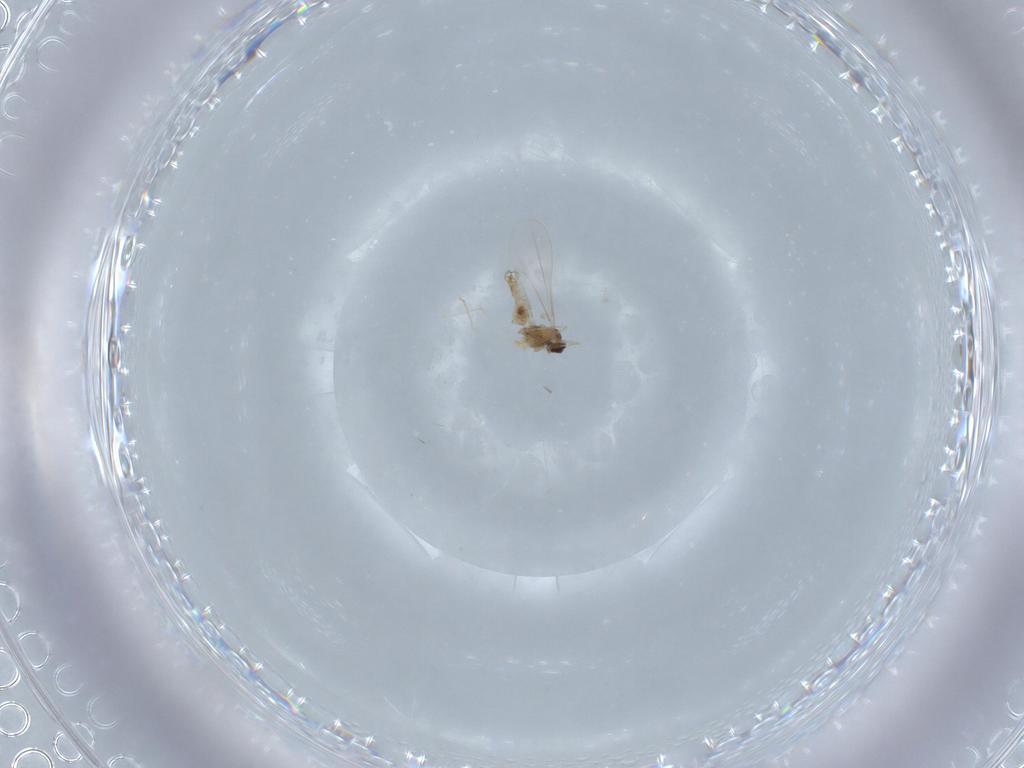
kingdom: Animalia
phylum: Arthropoda
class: Insecta
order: Diptera
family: Cecidomyiidae
